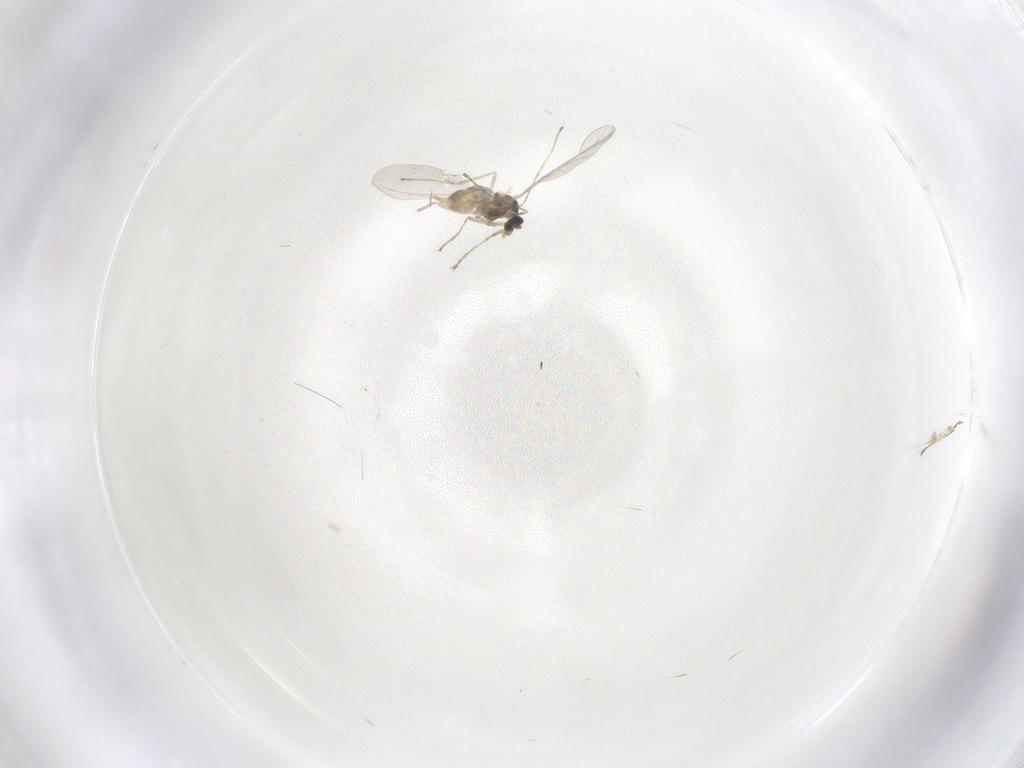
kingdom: Animalia
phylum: Arthropoda
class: Insecta
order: Diptera
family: Cecidomyiidae
